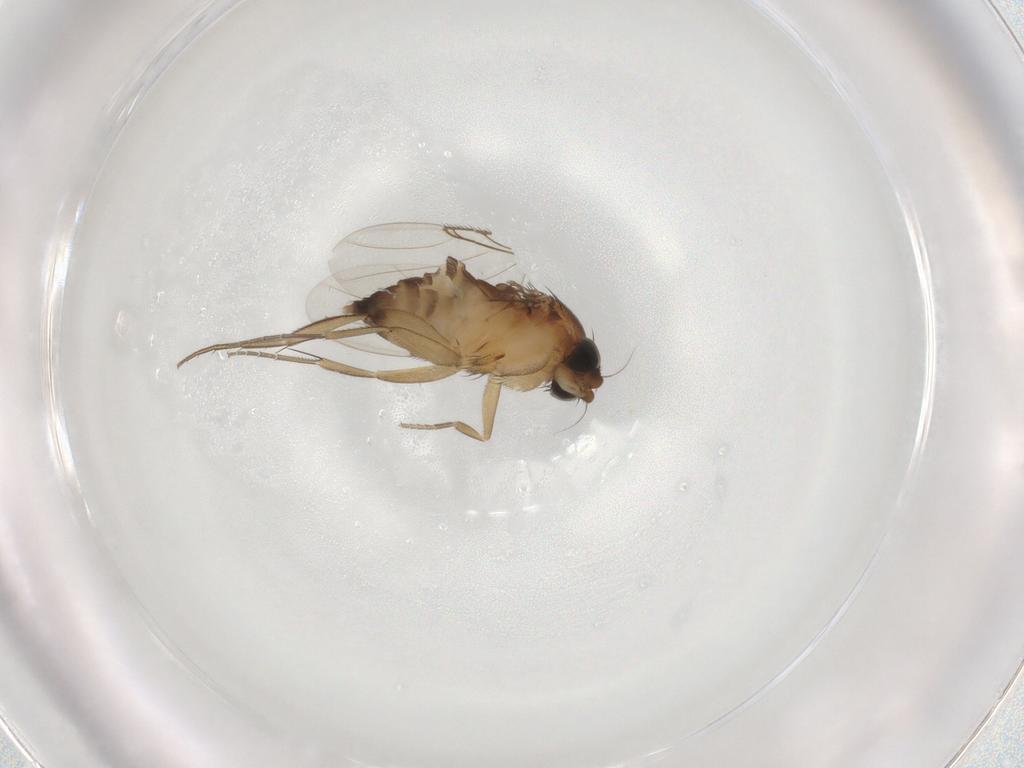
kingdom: Animalia
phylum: Arthropoda
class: Insecta
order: Diptera
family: Phoridae
